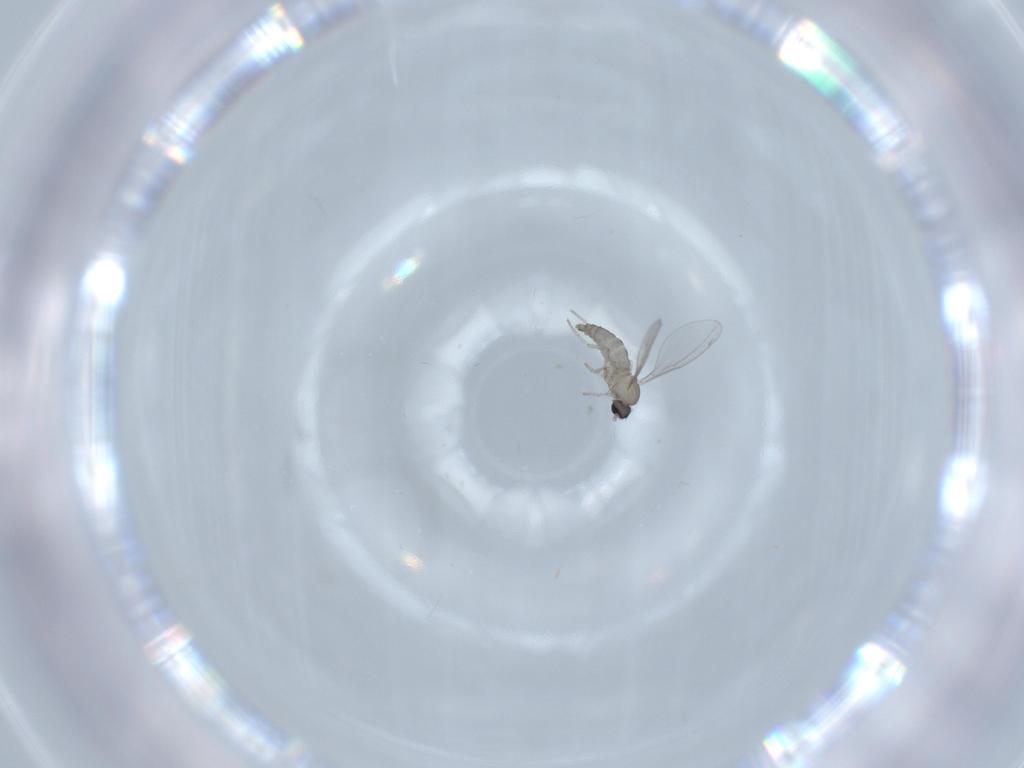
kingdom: Animalia
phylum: Arthropoda
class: Insecta
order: Diptera
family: Cecidomyiidae
